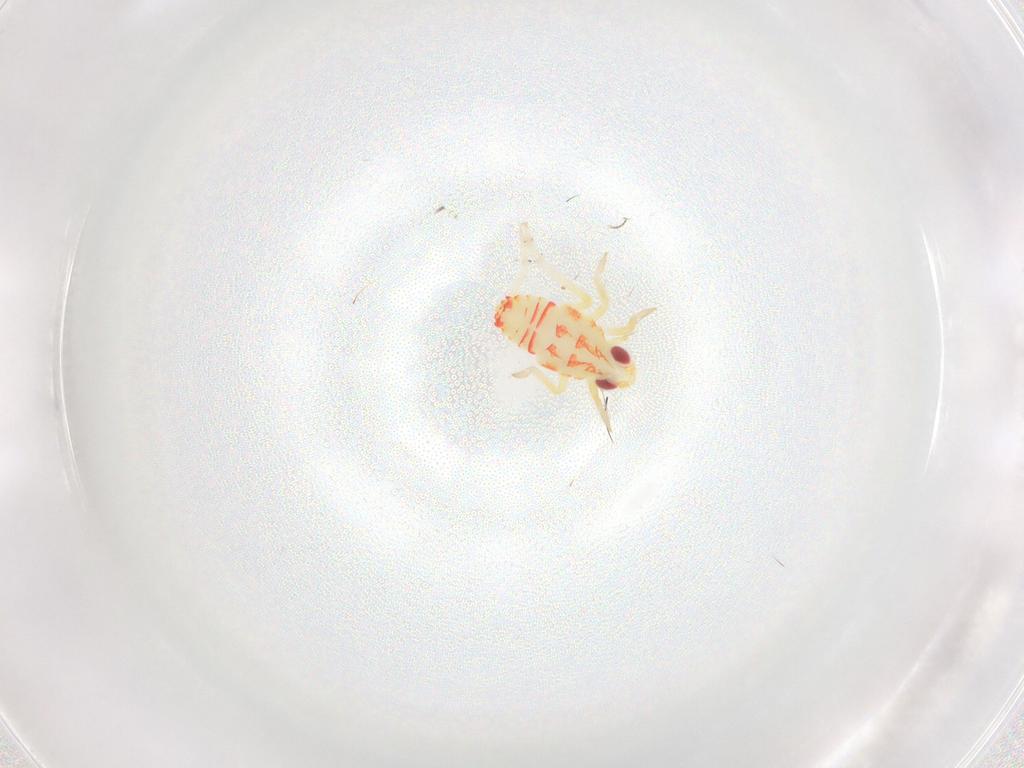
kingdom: Animalia
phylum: Arthropoda
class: Insecta
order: Hemiptera
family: Tropiduchidae
